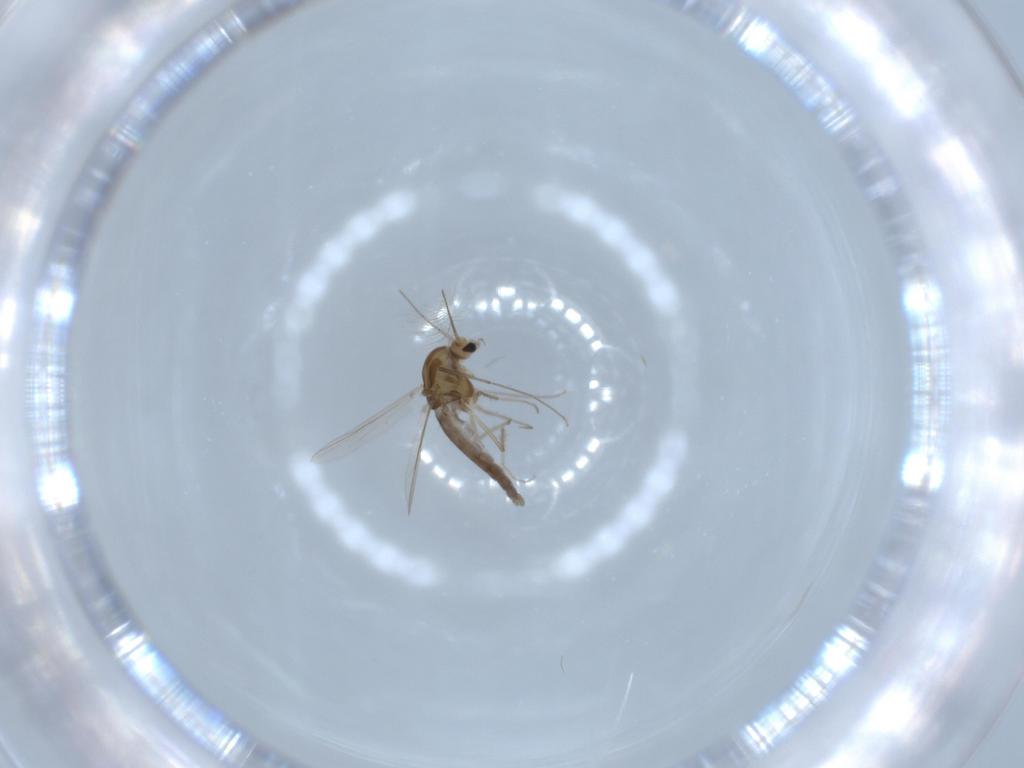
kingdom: Animalia
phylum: Arthropoda
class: Insecta
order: Diptera
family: Chironomidae
